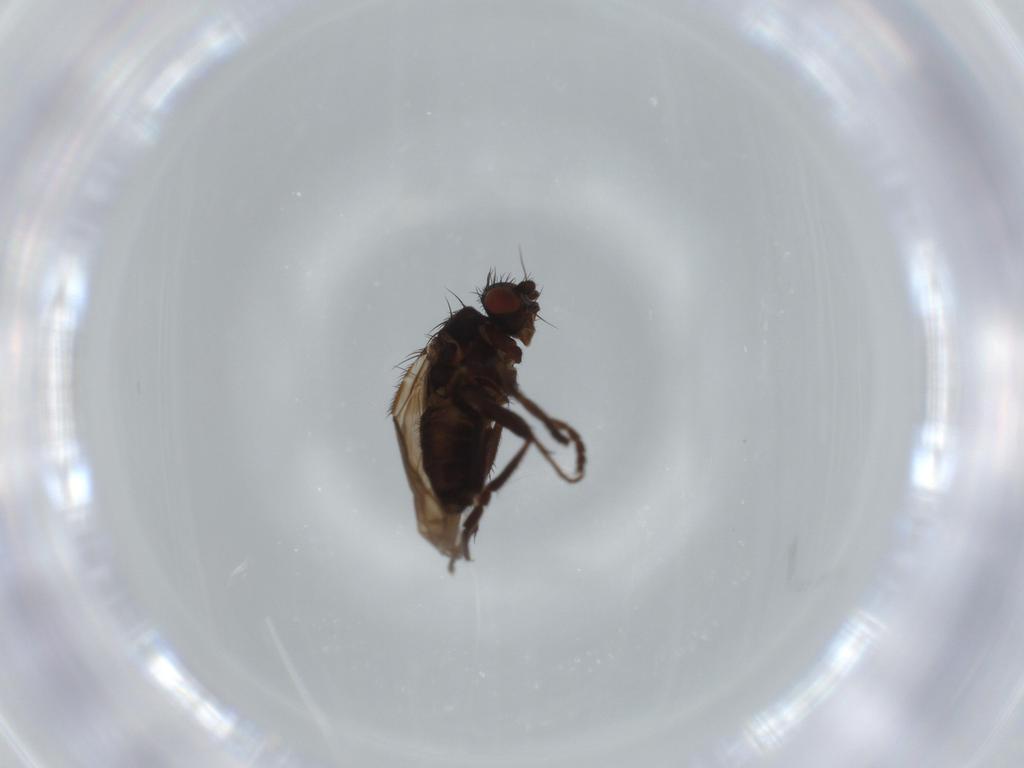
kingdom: Animalia
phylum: Arthropoda
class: Insecta
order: Diptera
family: Sphaeroceridae
